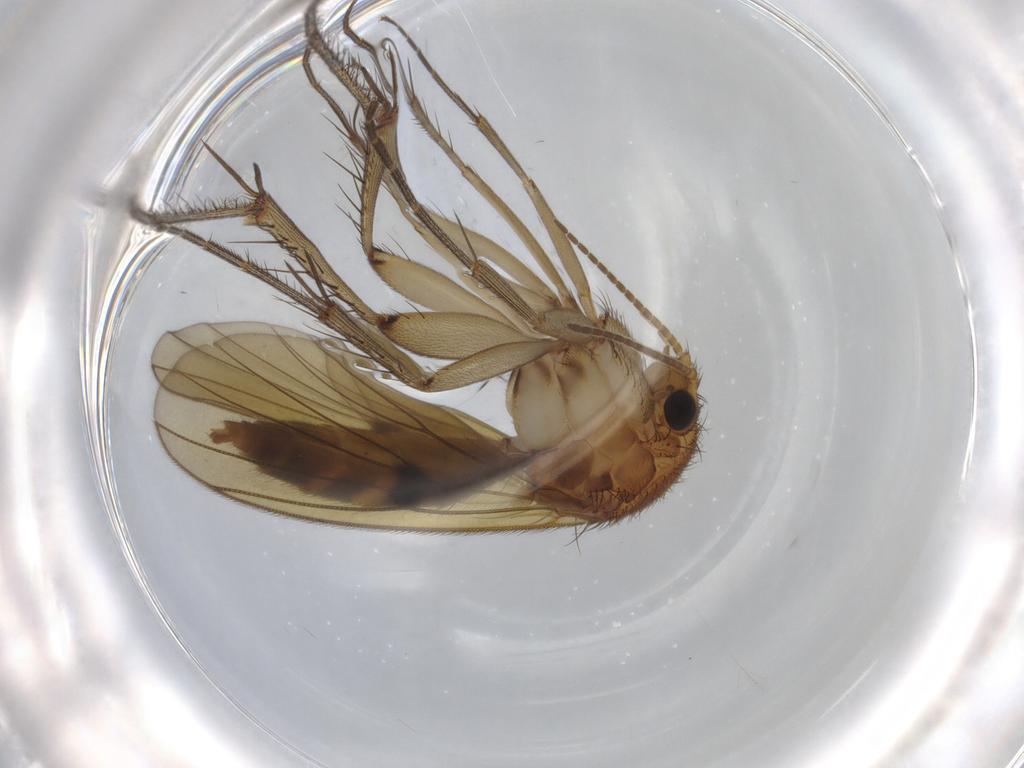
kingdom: Animalia
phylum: Arthropoda
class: Insecta
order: Diptera
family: Mycetophilidae
